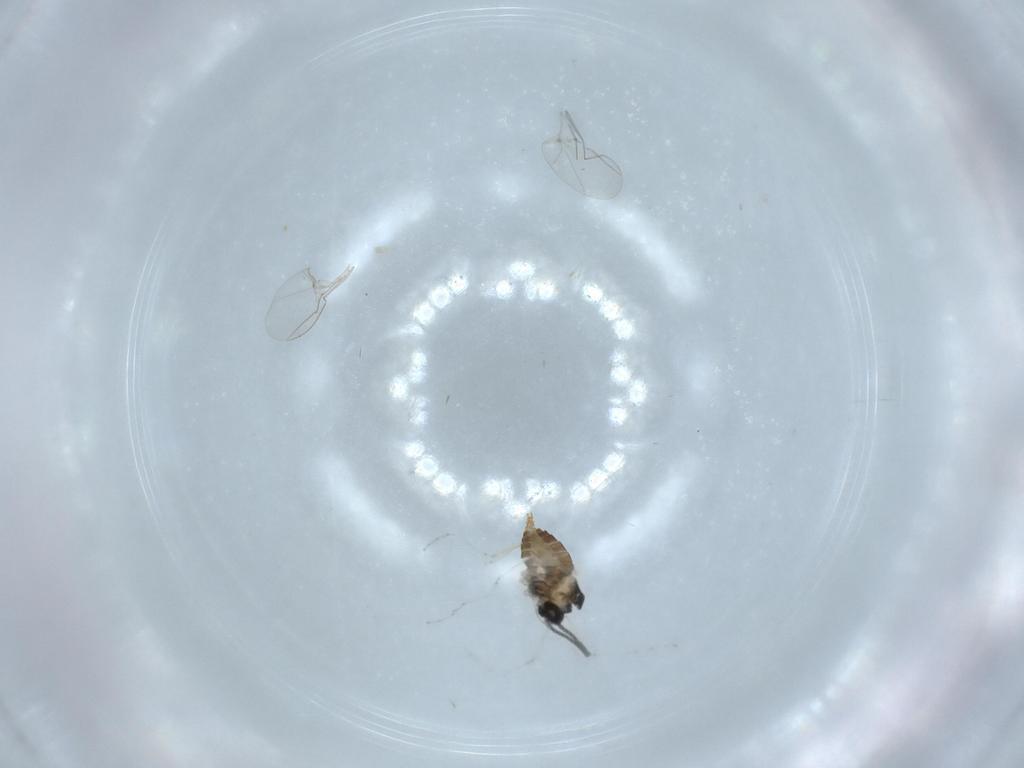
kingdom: Animalia
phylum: Arthropoda
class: Insecta
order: Diptera
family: Cecidomyiidae
